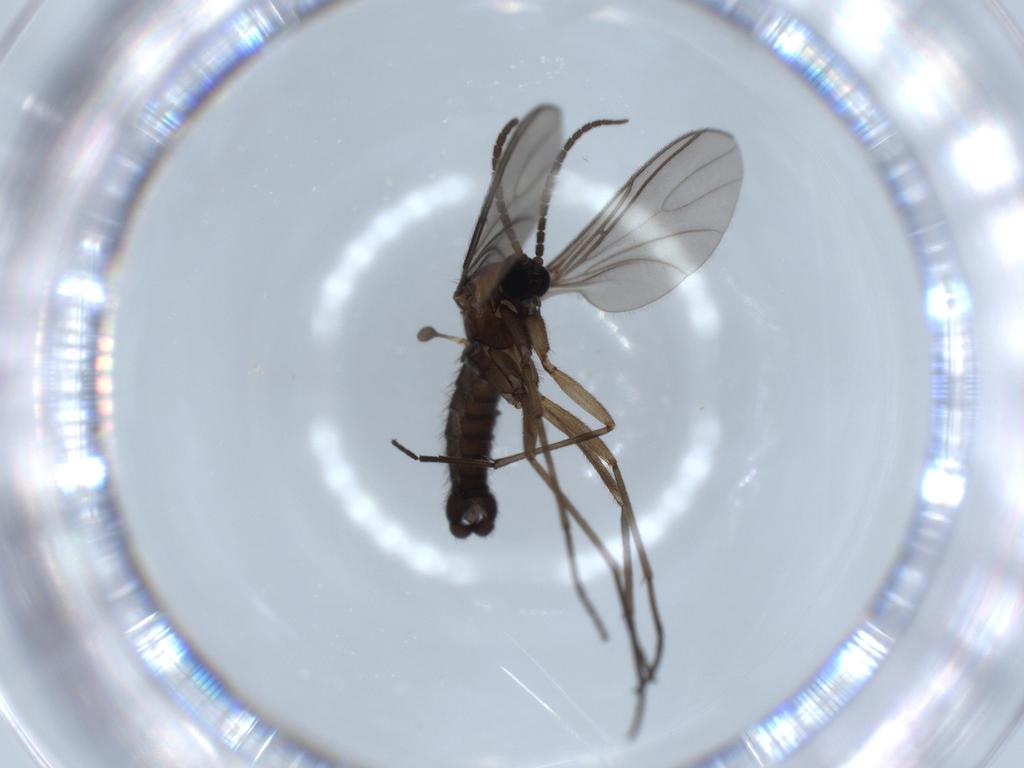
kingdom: Animalia
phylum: Arthropoda
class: Insecta
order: Diptera
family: Sciaridae
